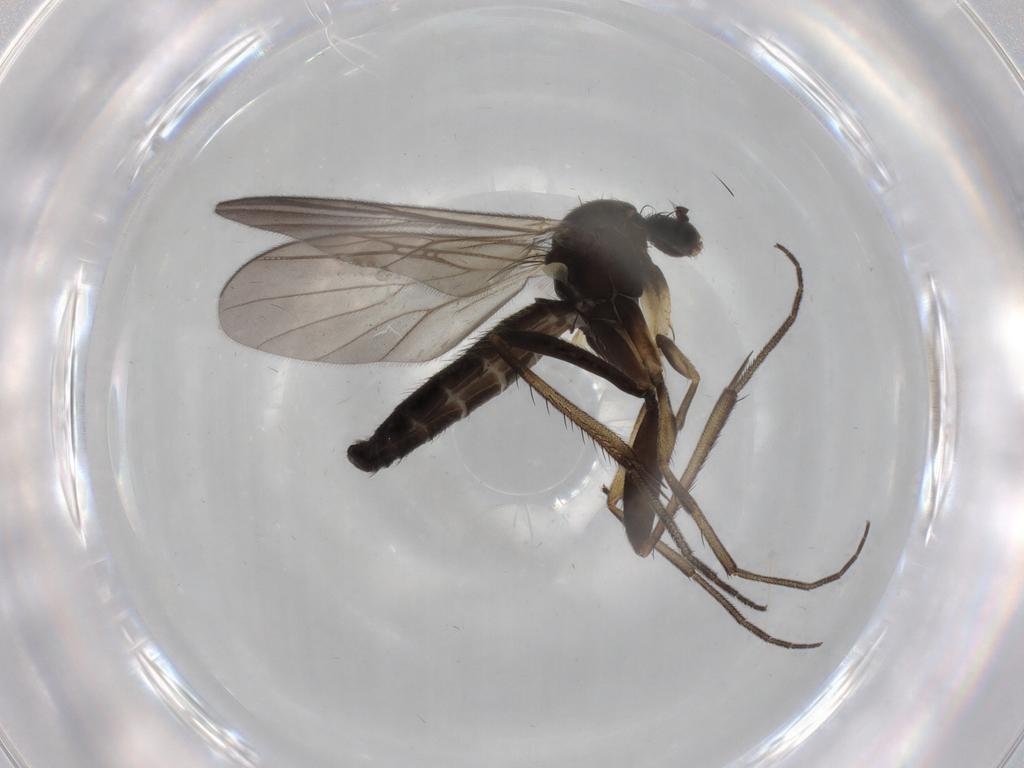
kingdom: Animalia
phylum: Arthropoda
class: Insecta
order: Diptera
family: Mycetophilidae
